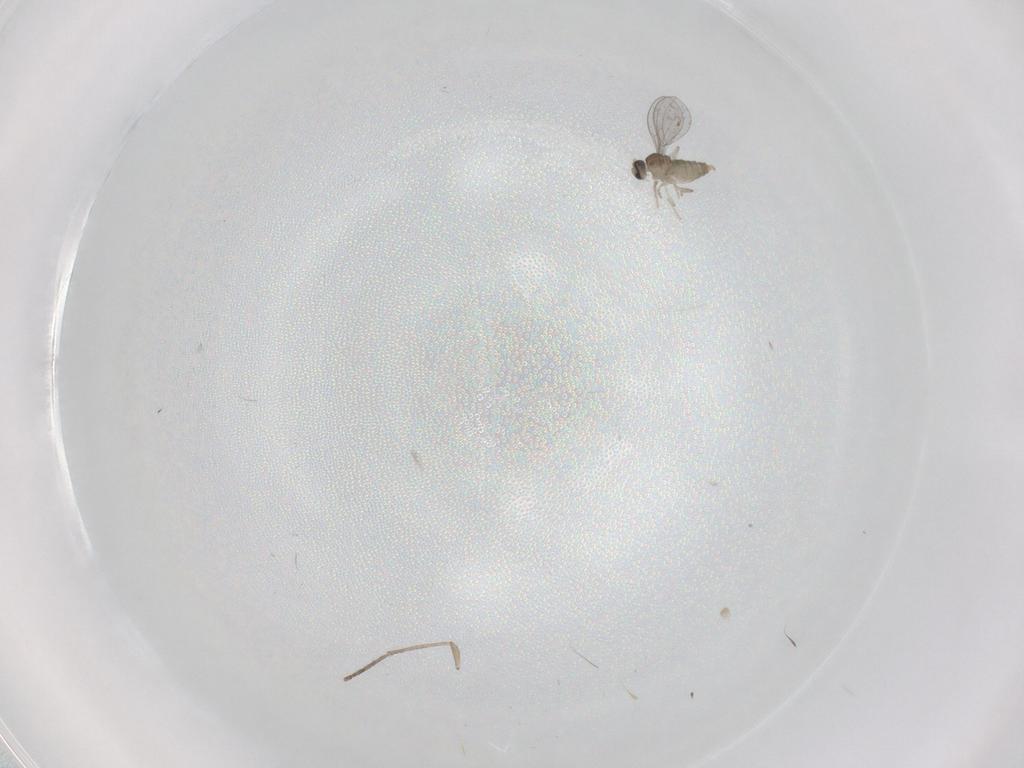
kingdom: Animalia
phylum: Arthropoda
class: Insecta
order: Diptera
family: Cecidomyiidae
